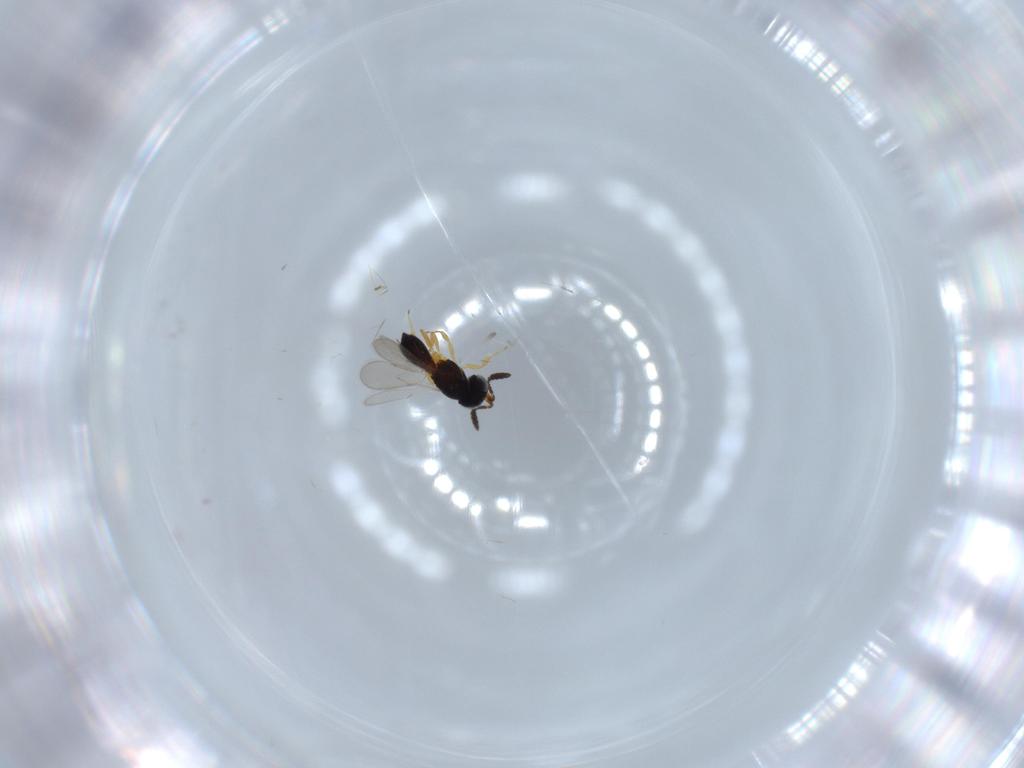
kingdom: Animalia
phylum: Arthropoda
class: Insecta
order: Hymenoptera
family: Scelionidae
